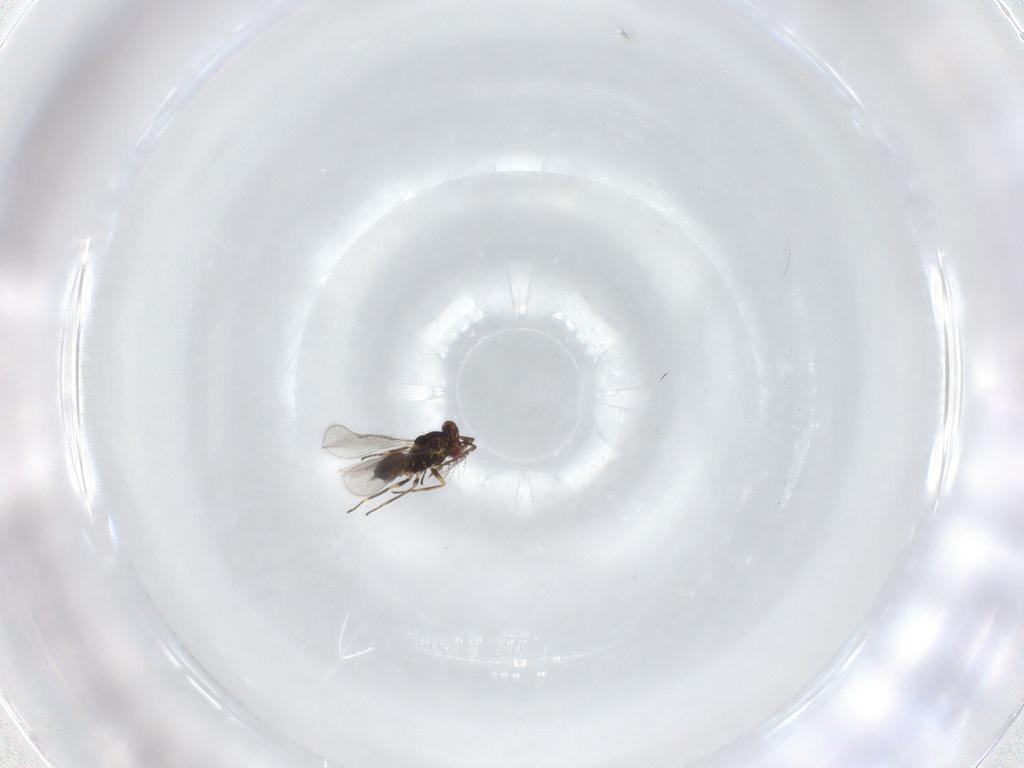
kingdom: Animalia
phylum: Arthropoda
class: Insecta
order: Hymenoptera
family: Eulophidae
